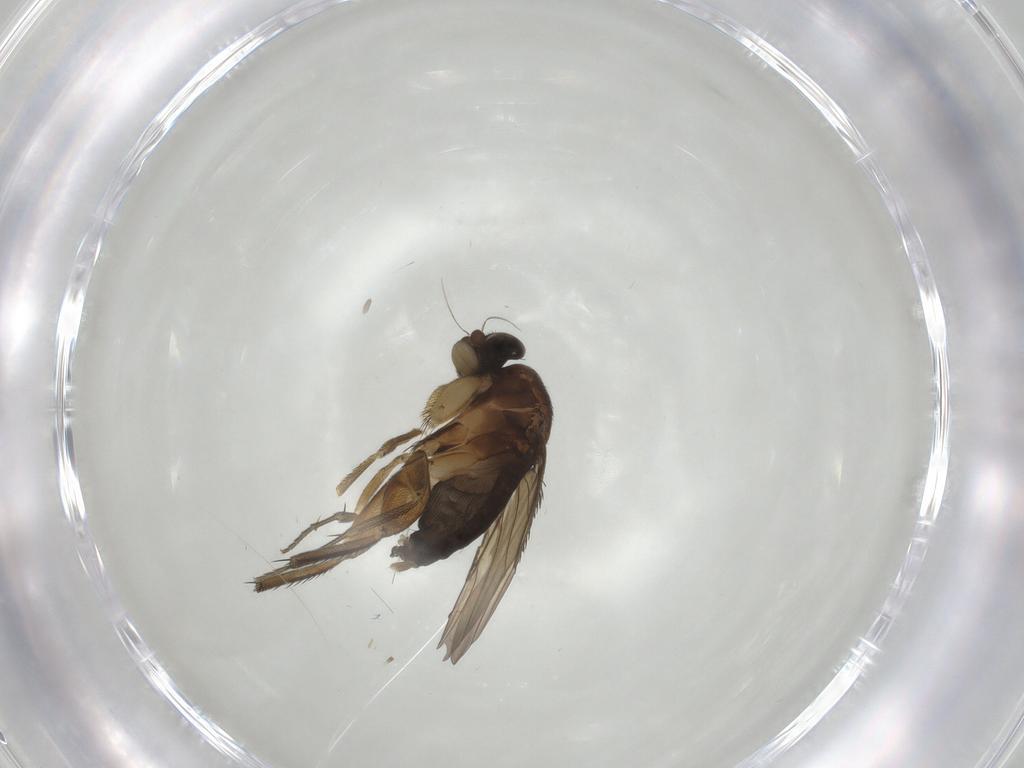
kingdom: Animalia
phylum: Arthropoda
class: Insecta
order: Diptera
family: Phoridae
